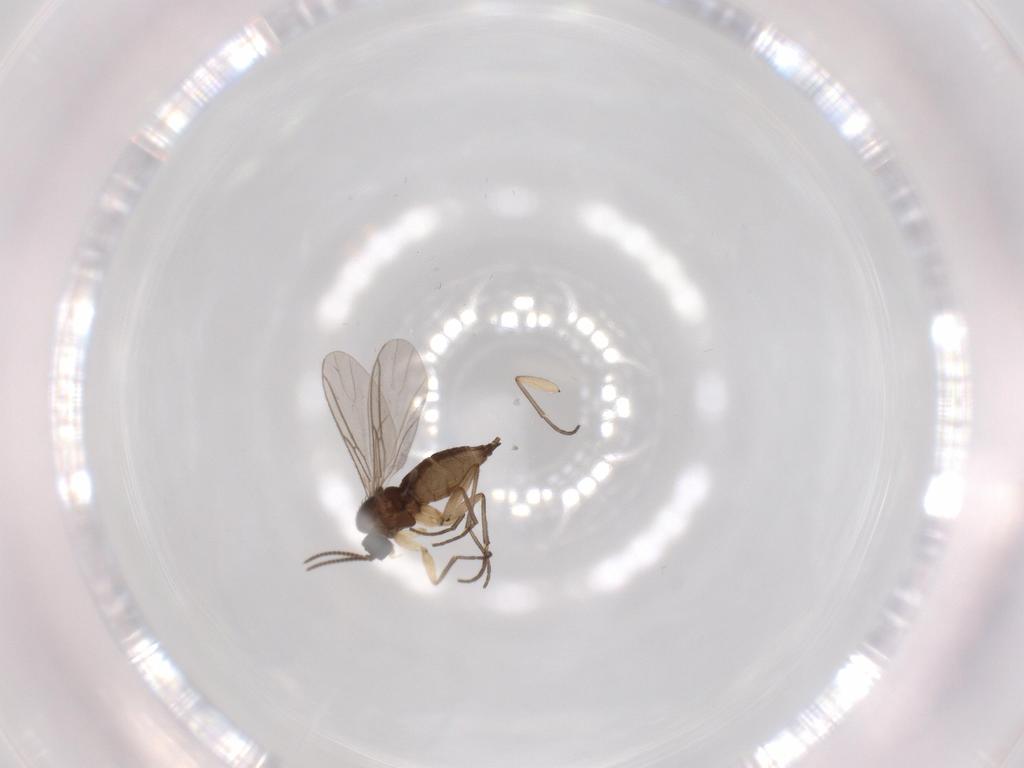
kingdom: Animalia
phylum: Arthropoda
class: Insecta
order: Diptera
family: Sciaridae
